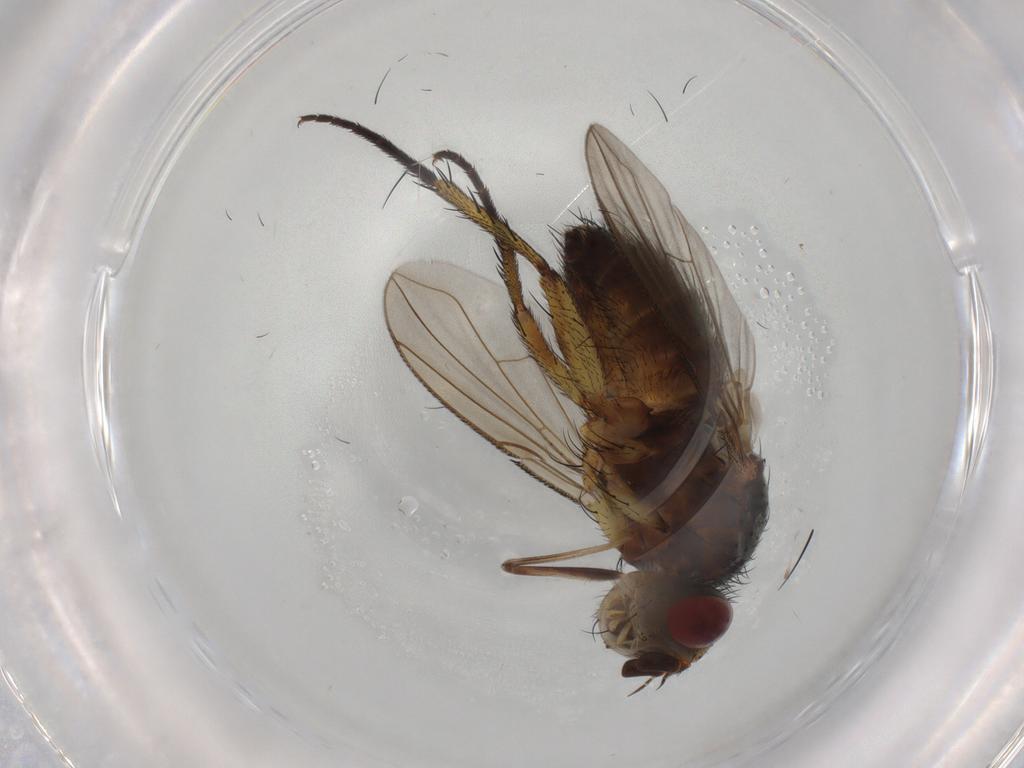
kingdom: Animalia
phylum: Arthropoda
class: Insecta
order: Diptera
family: Tachinidae
